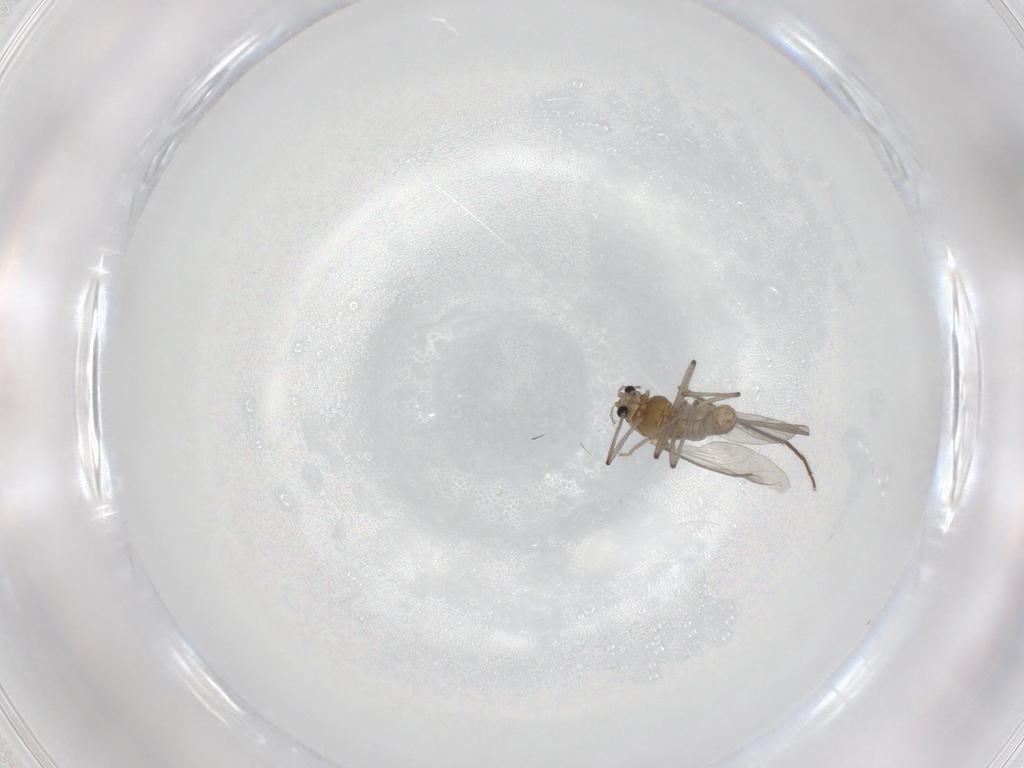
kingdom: Animalia
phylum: Arthropoda
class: Insecta
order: Diptera
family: Chironomidae
